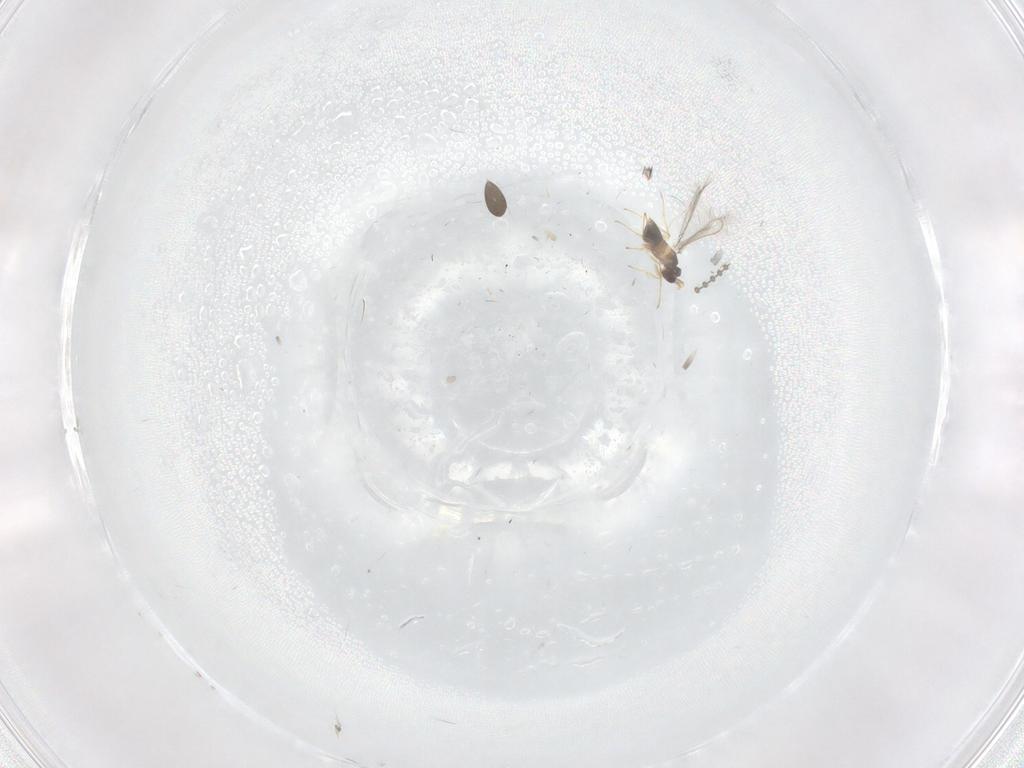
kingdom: Animalia
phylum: Arthropoda
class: Insecta
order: Hymenoptera
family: Mymaridae
